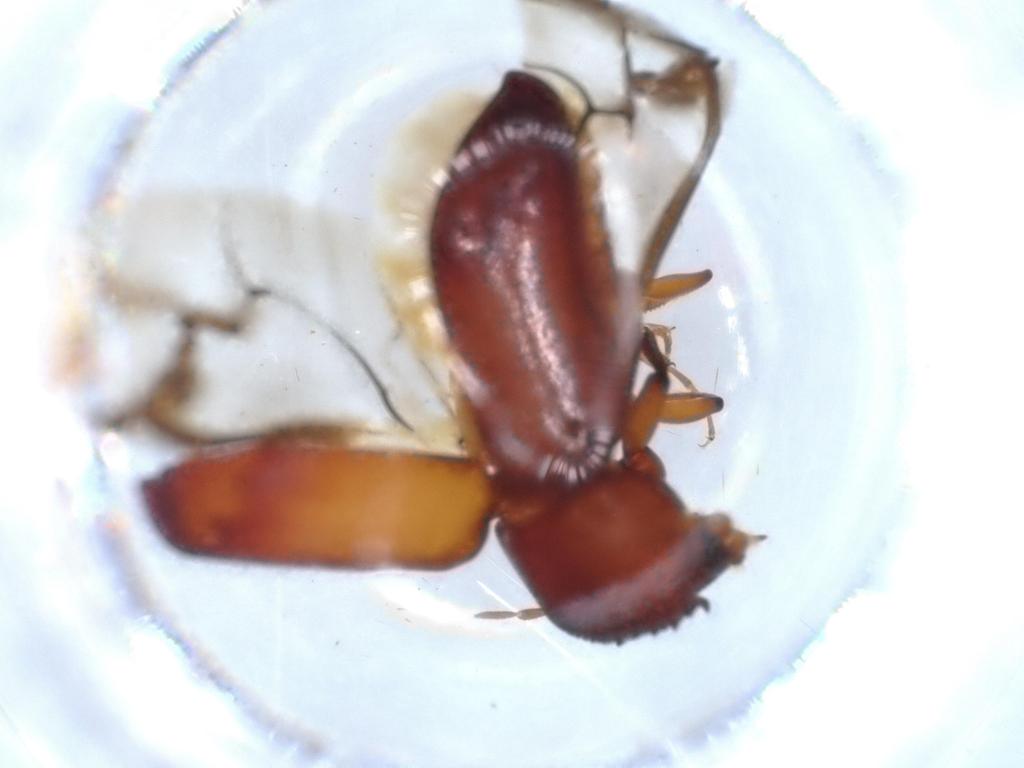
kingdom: Animalia
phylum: Arthropoda
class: Insecta
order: Coleoptera
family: Bostrichidae
